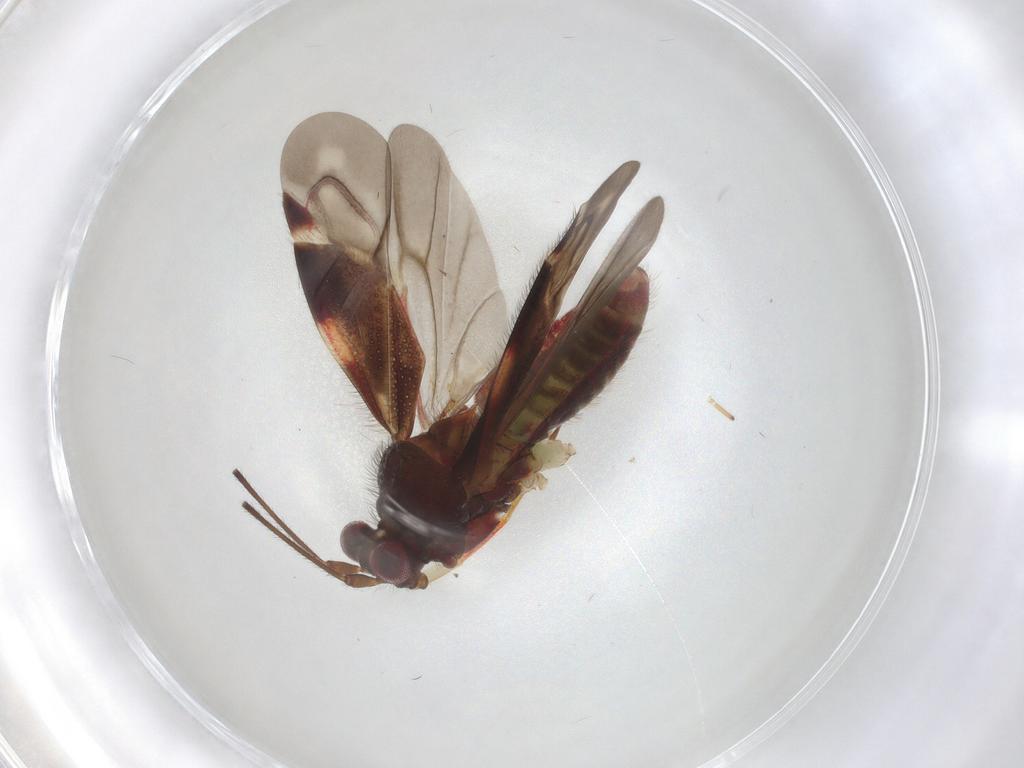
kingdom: Animalia
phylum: Arthropoda
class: Insecta
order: Hemiptera
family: Miridae
